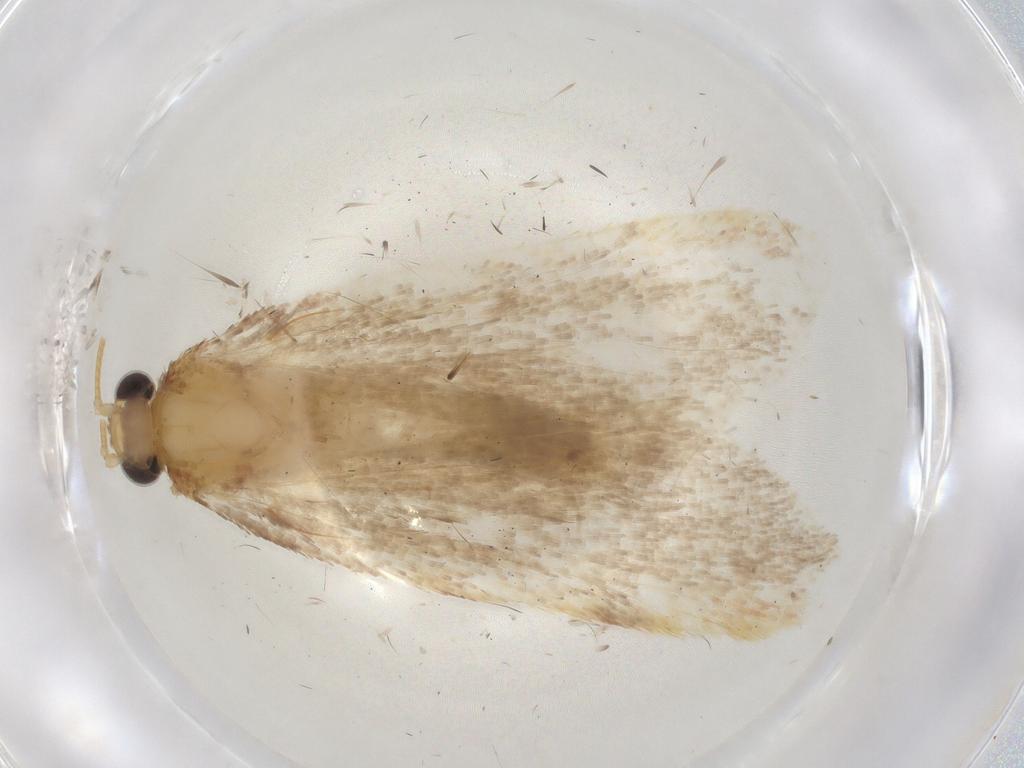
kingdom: Animalia
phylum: Arthropoda
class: Insecta
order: Lepidoptera
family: Pyralidae
